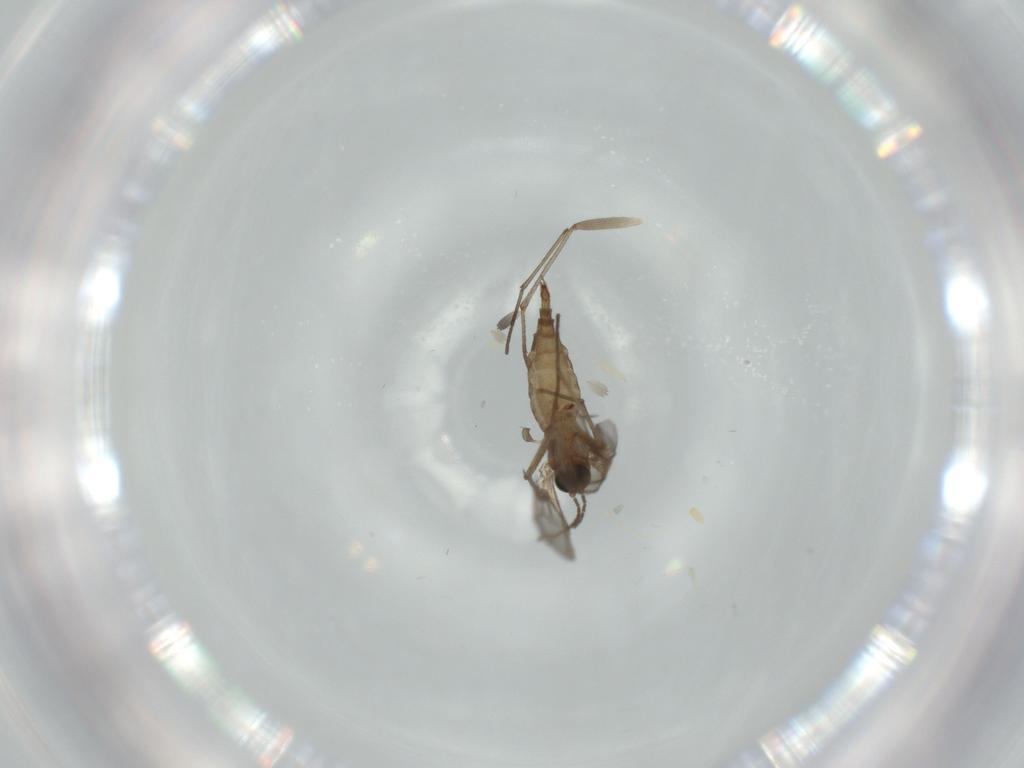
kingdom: Animalia
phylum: Arthropoda
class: Insecta
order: Diptera
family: Sciaridae
